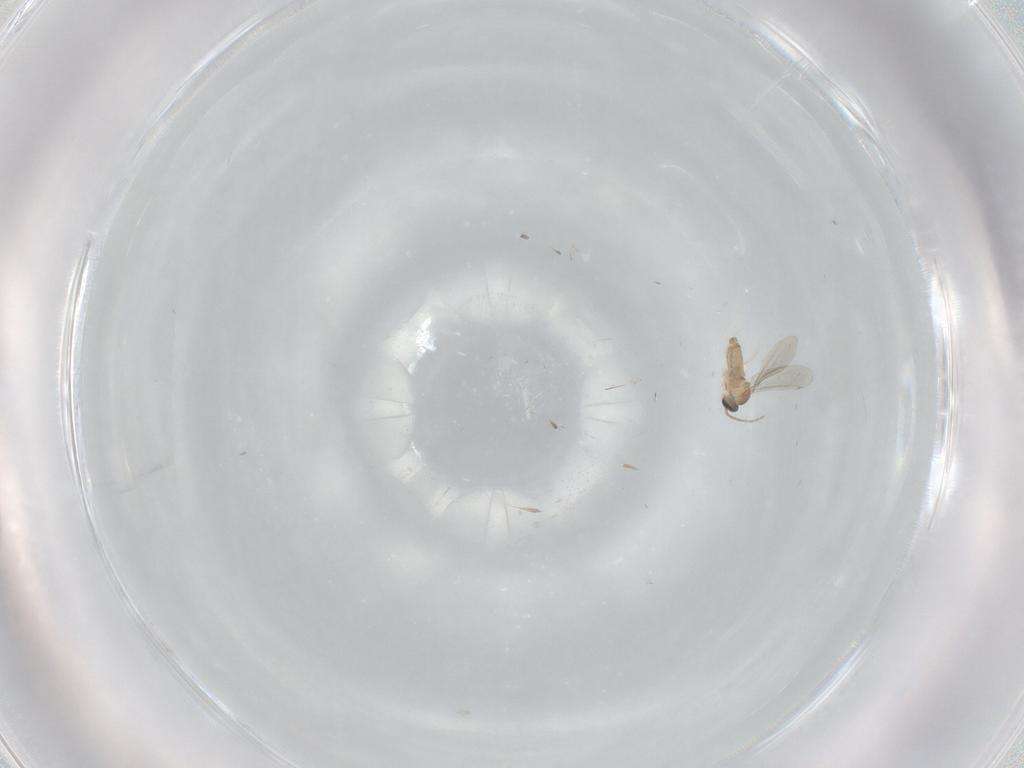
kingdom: Animalia
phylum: Arthropoda
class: Insecta
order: Diptera
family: Cecidomyiidae
